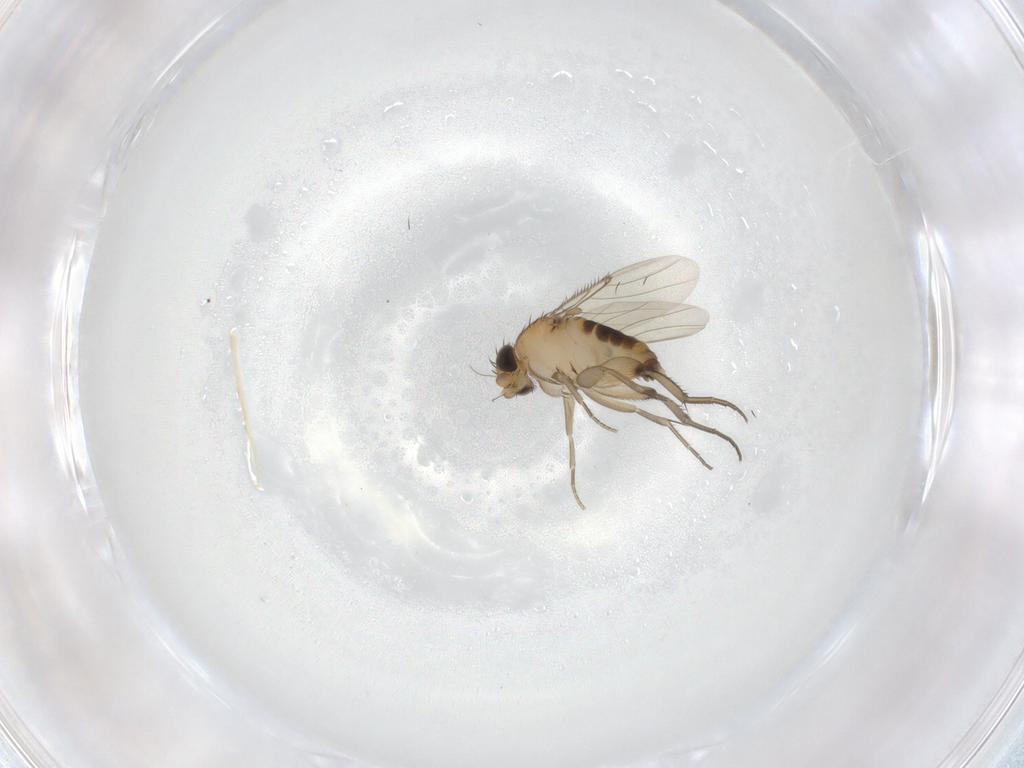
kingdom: Animalia
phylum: Arthropoda
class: Insecta
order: Diptera
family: Phoridae
